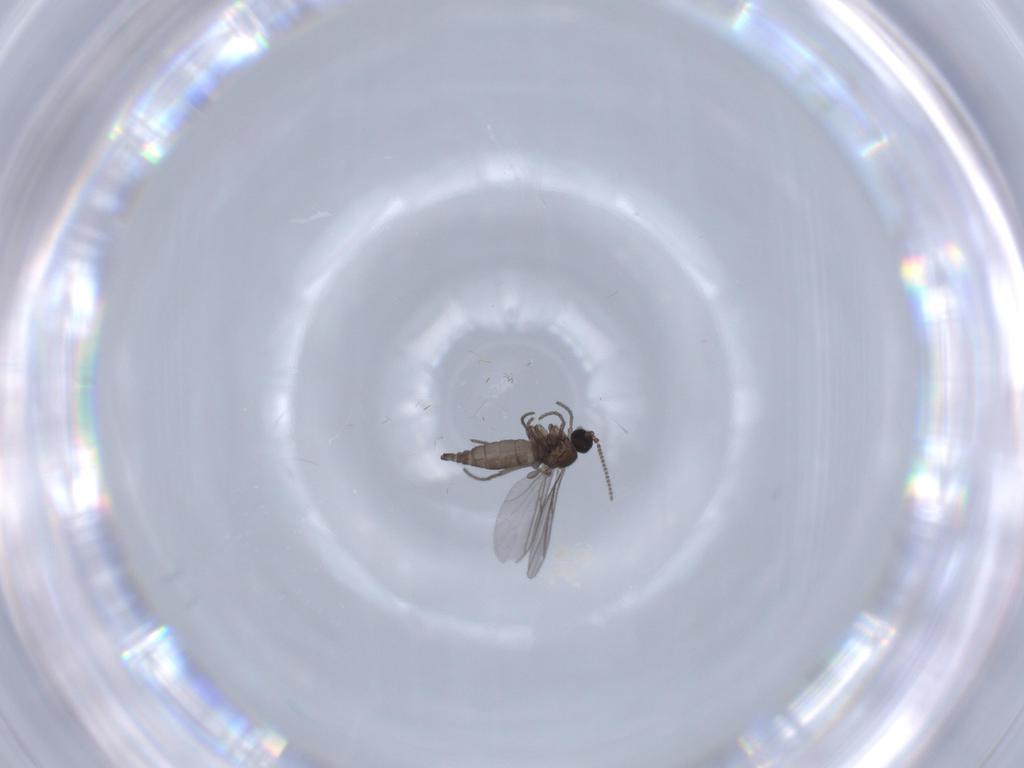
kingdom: Animalia
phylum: Arthropoda
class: Insecta
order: Diptera
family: Sciaridae
